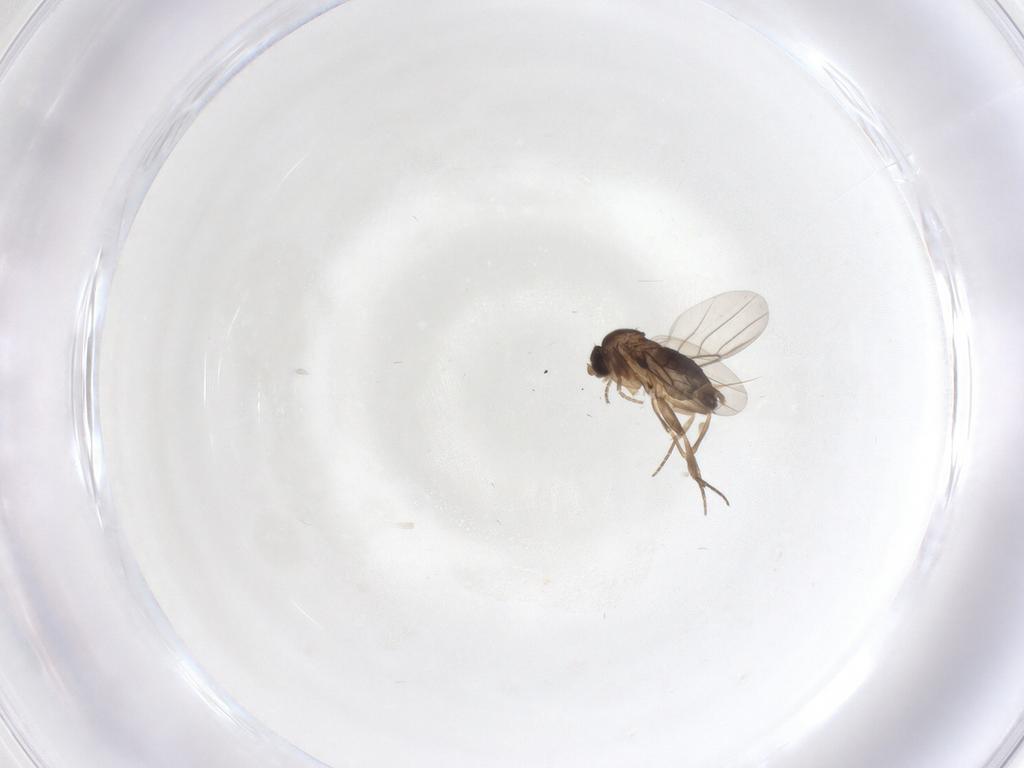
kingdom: Animalia
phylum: Arthropoda
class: Insecta
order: Diptera
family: Phoridae
